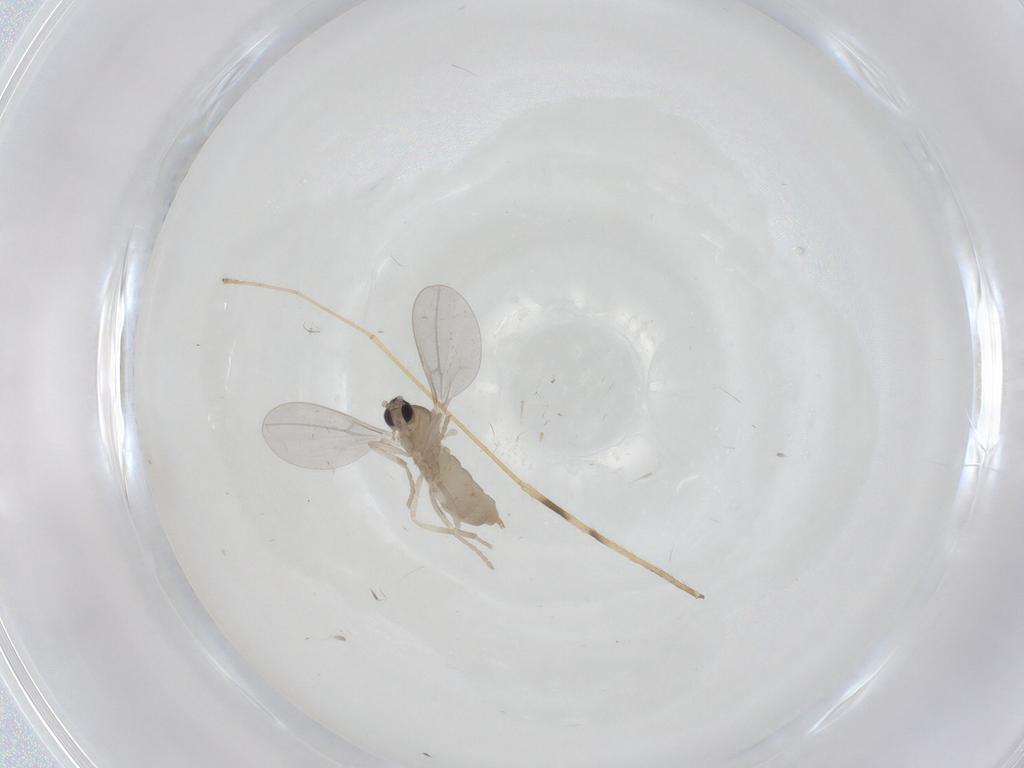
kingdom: Animalia
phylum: Arthropoda
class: Insecta
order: Diptera
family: Cecidomyiidae
